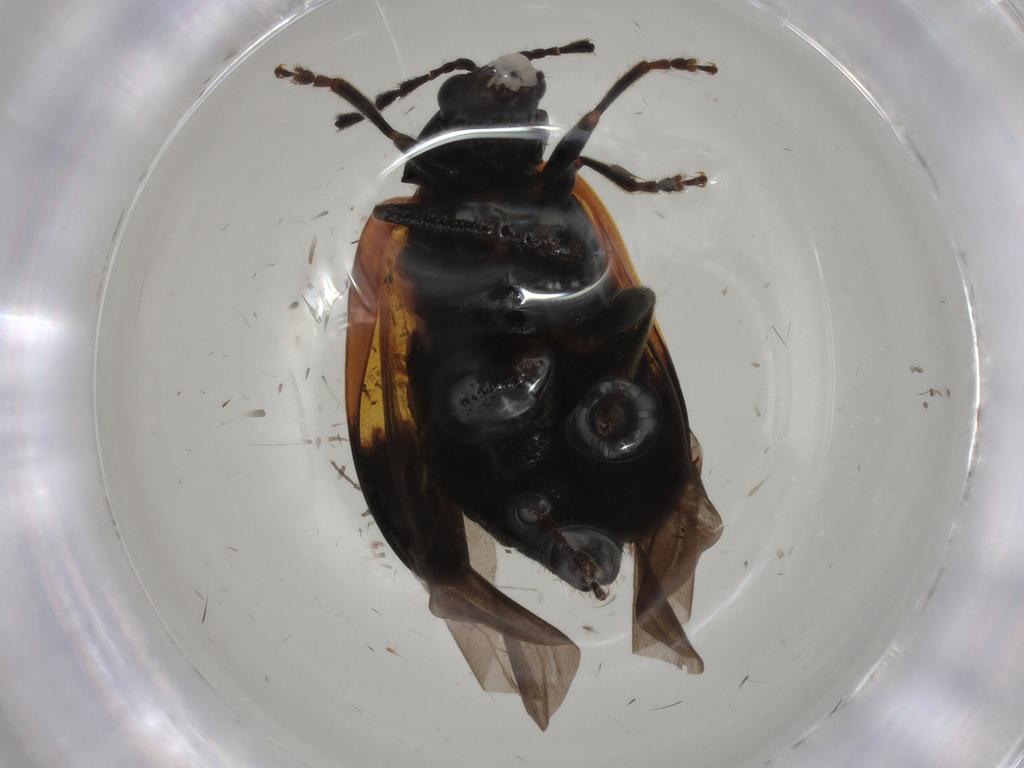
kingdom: Animalia
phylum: Arthropoda
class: Insecta
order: Coleoptera
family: Chrysomelidae
